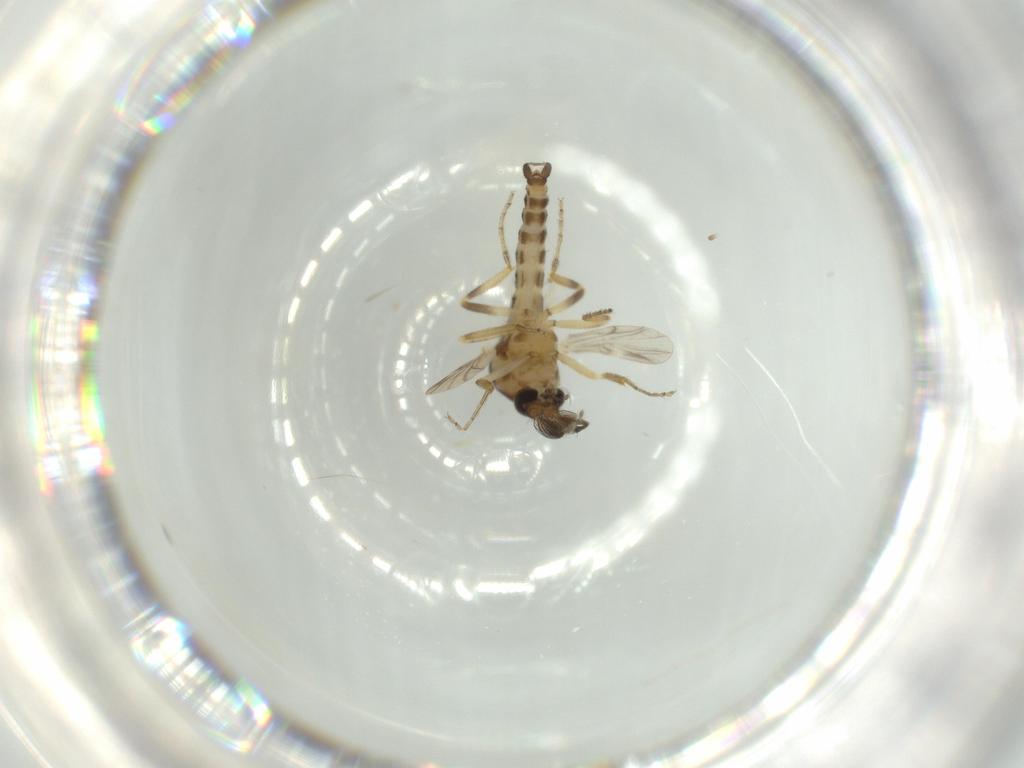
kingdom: Animalia
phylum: Arthropoda
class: Insecta
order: Diptera
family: Ceratopogonidae
